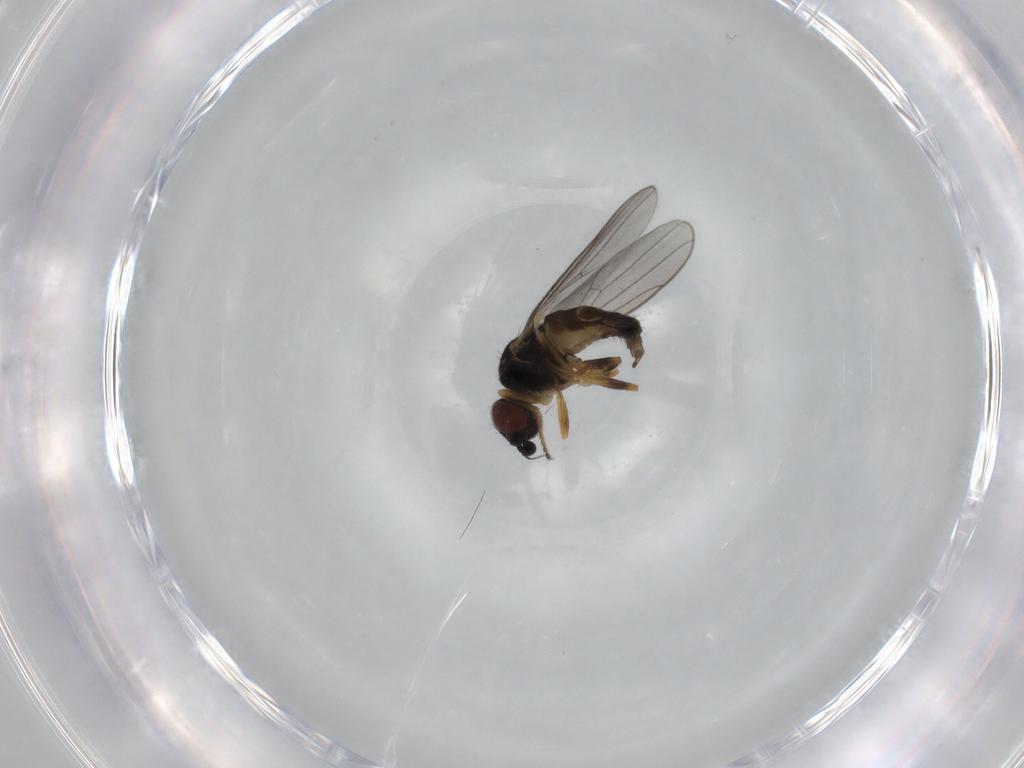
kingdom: Animalia
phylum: Arthropoda
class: Insecta
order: Diptera
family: Chloropidae
